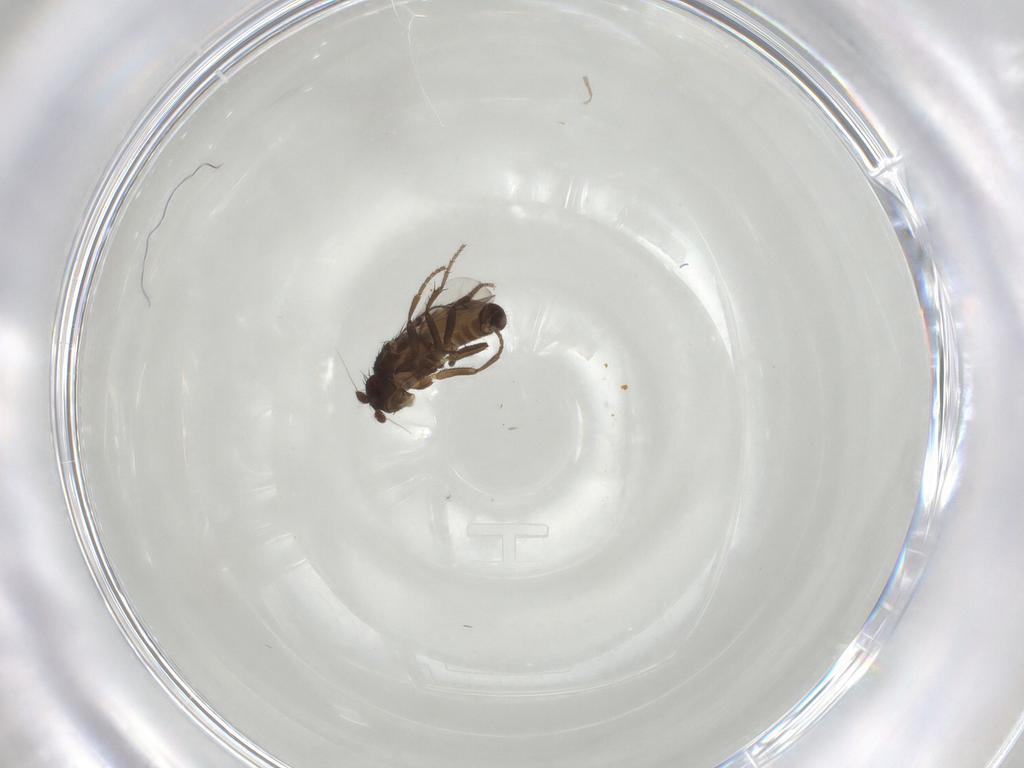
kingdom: Animalia
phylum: Arthropoda
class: Insecta
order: Diptera
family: Sphaeroceridae
